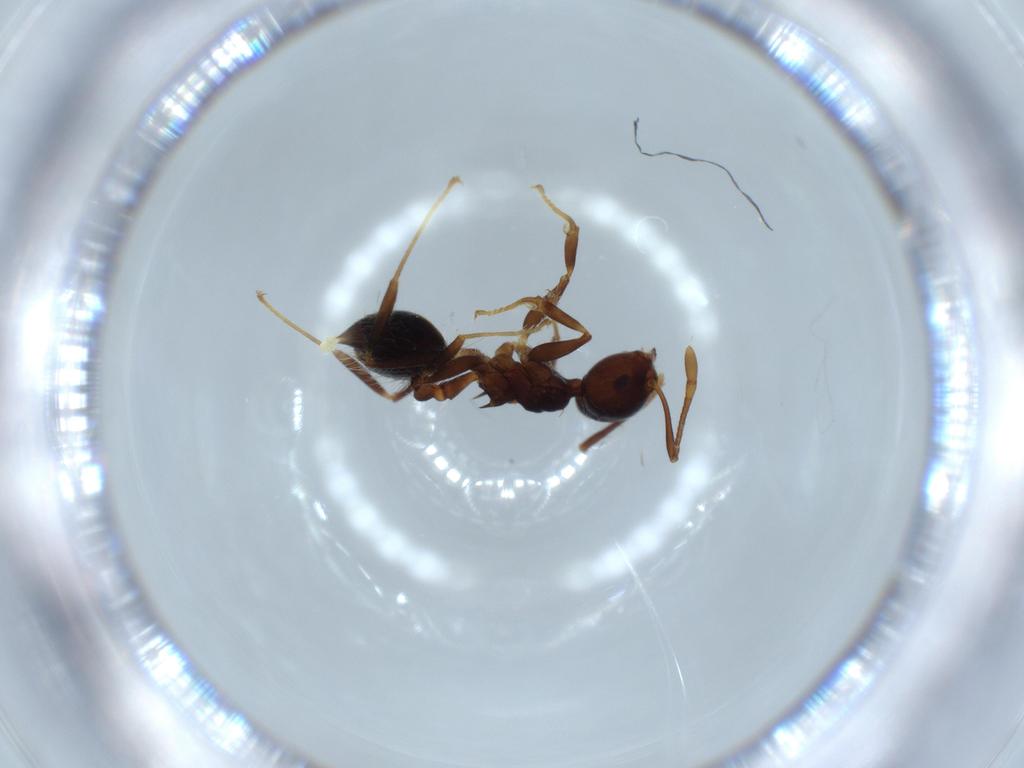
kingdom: Animalia
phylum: Arthropoda
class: Insecta
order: Hymenoptera
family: Formicidae
